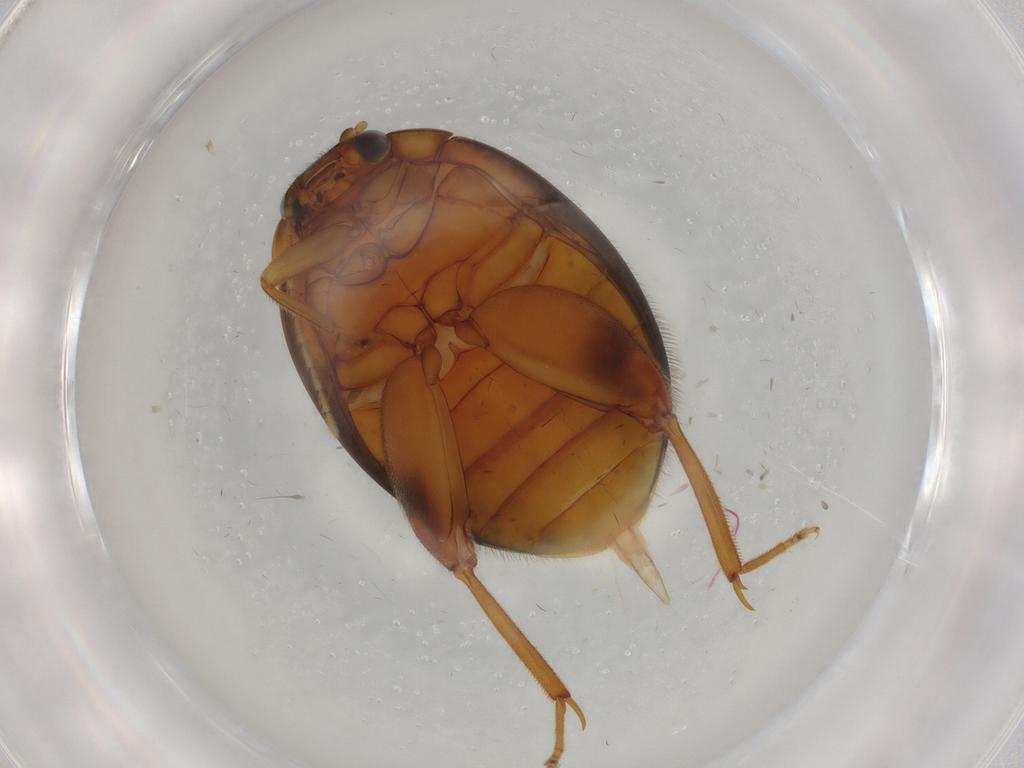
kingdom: Animalia
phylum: Arthropoda
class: Insecta
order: Coleoptera
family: Scirtidae
